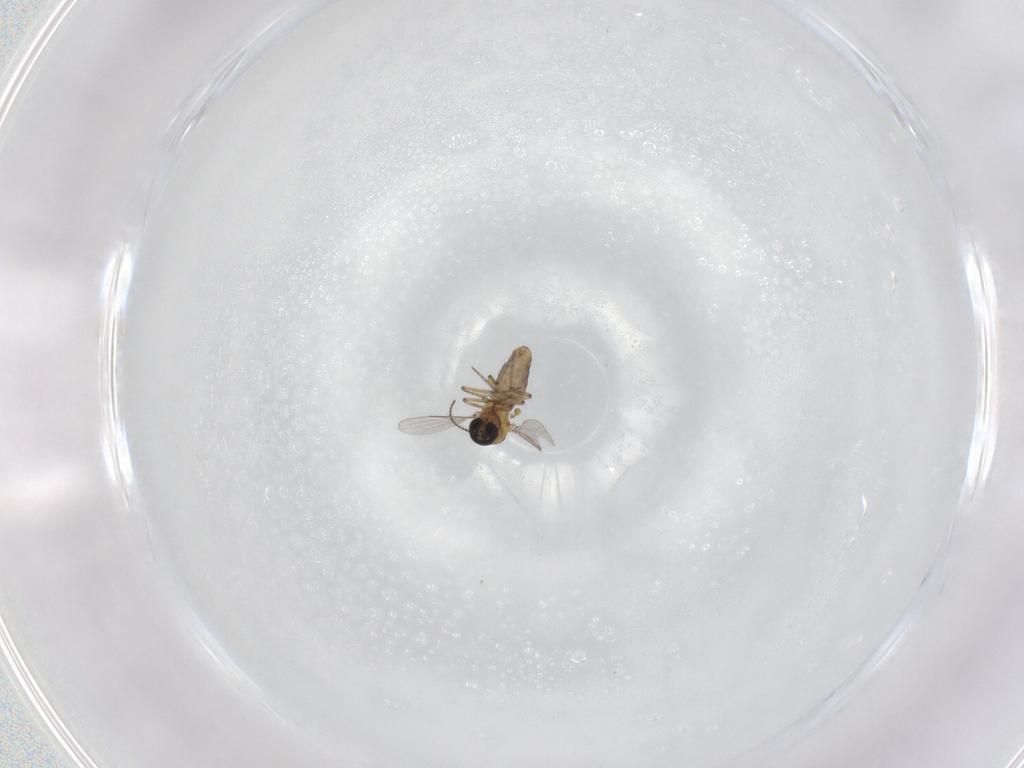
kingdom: Animalia
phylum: Arthropoda
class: Insecta
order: Diptera
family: Ceratopogonidae
